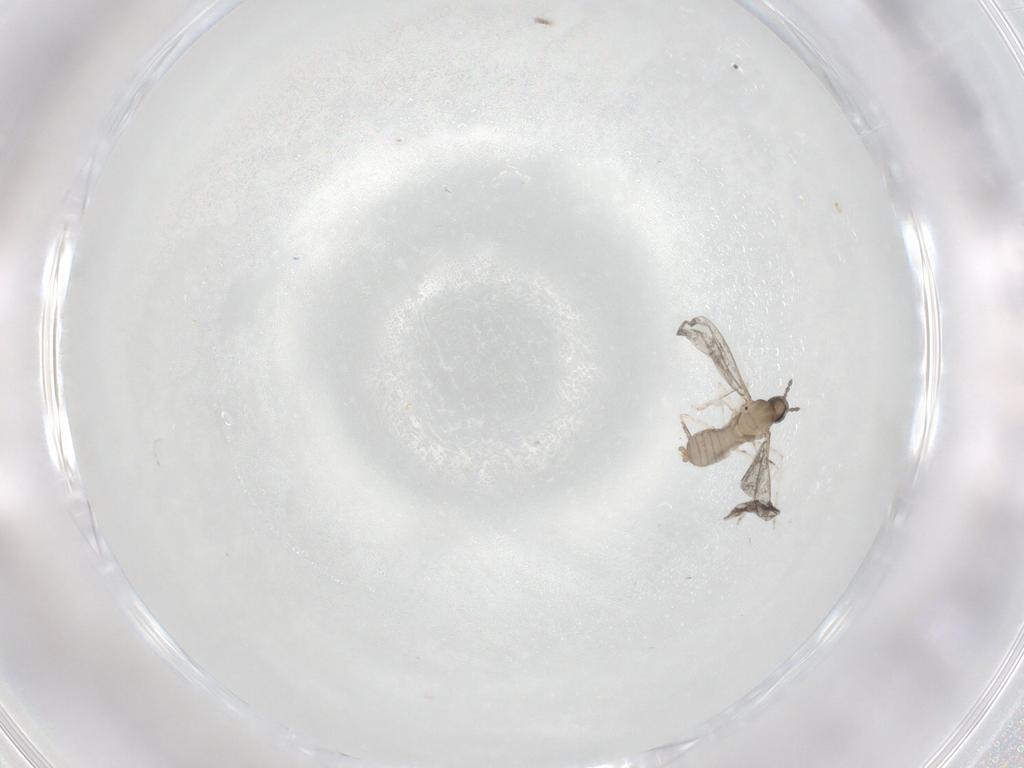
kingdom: Animalia
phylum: Arthropoda
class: Insecta
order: Diptera
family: Cecidomyiidae
